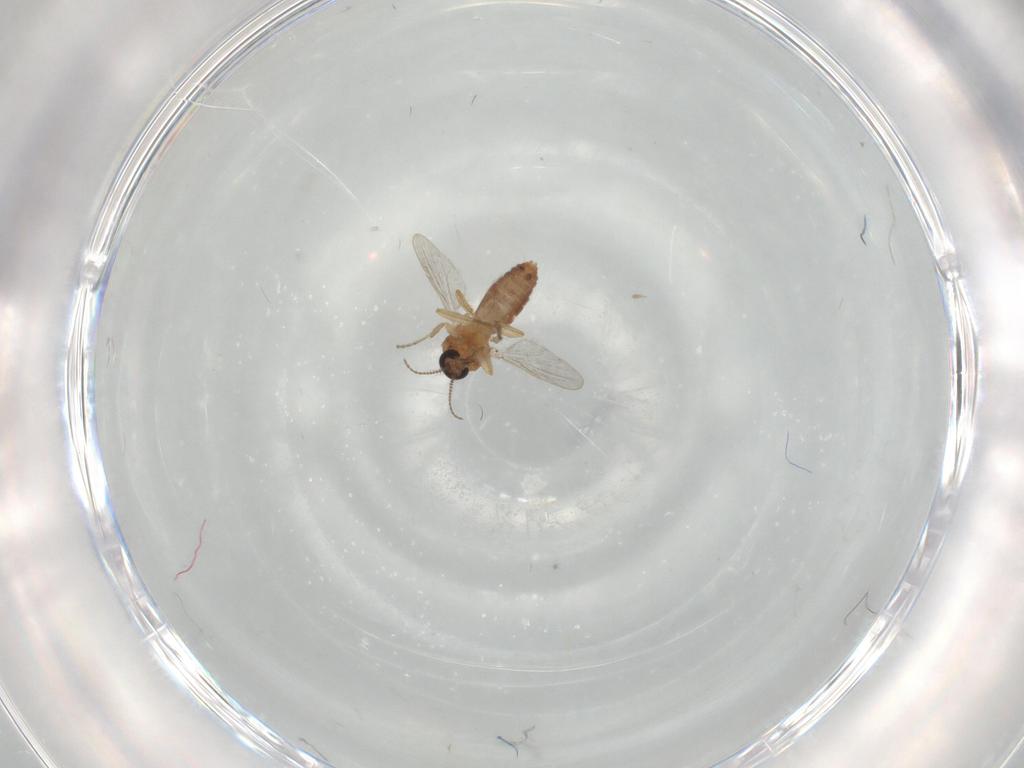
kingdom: Animalia
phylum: Arthropoda
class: Insecta
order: Diptera
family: Ceratopogonidae
